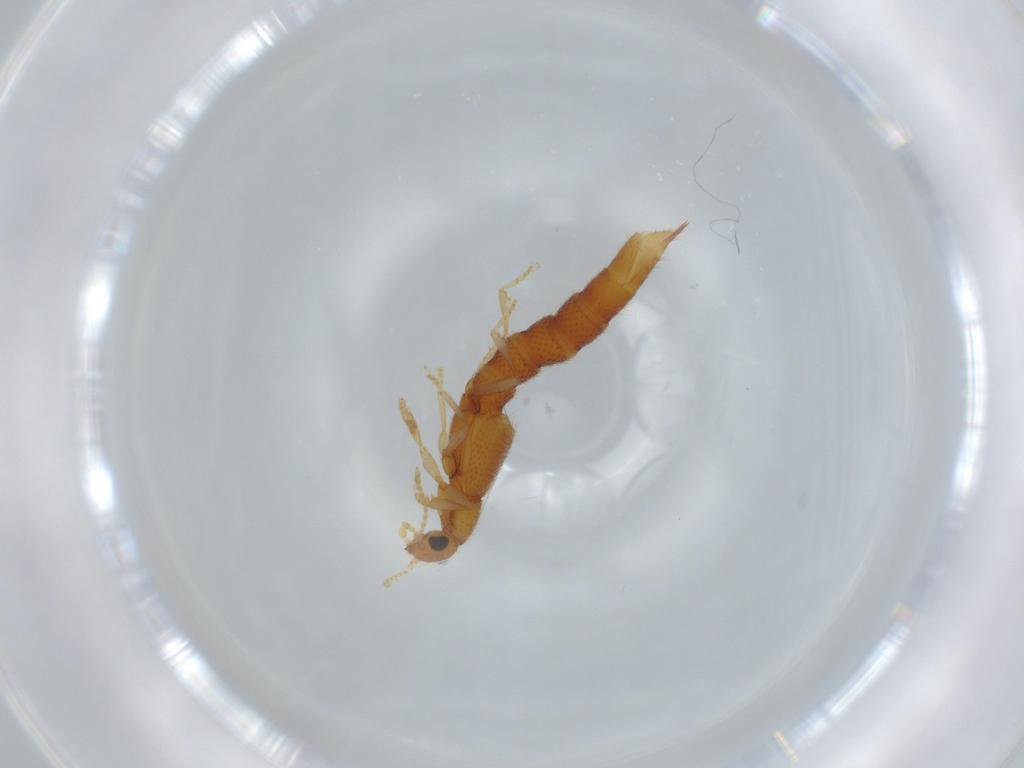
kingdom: Animalia
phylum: Arthropoda
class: Insecta
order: Coleoptera
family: Staphylinidae
